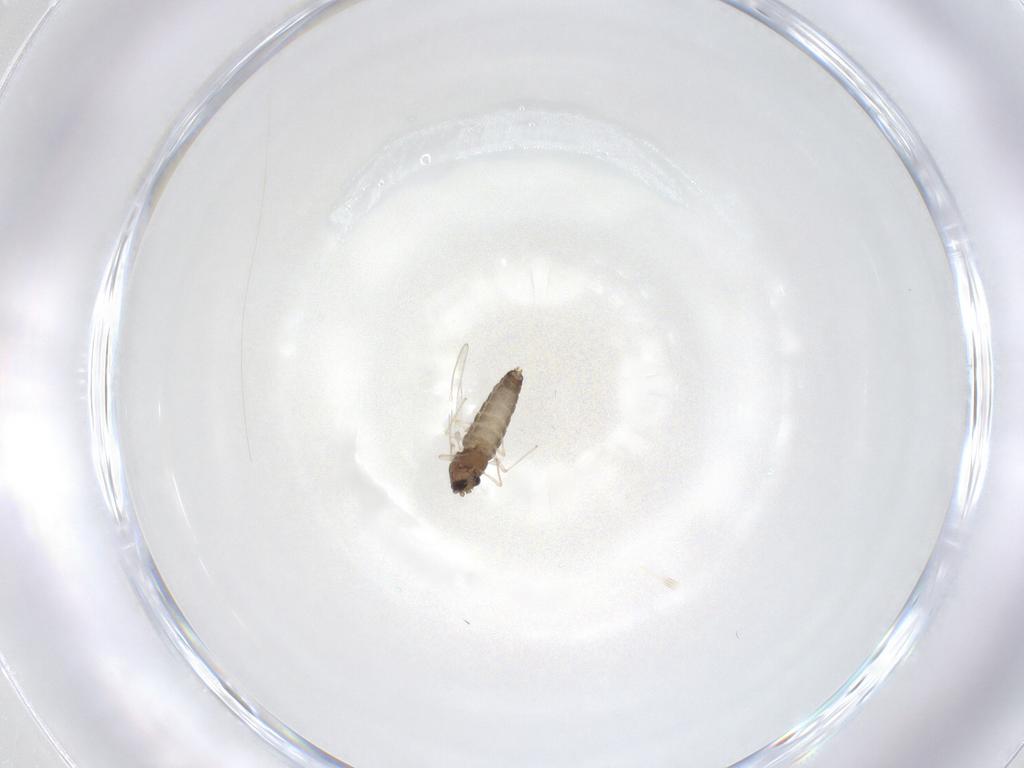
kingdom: Animalia
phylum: Arthropoda
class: Insecta
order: Diptera
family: Chironomidae
